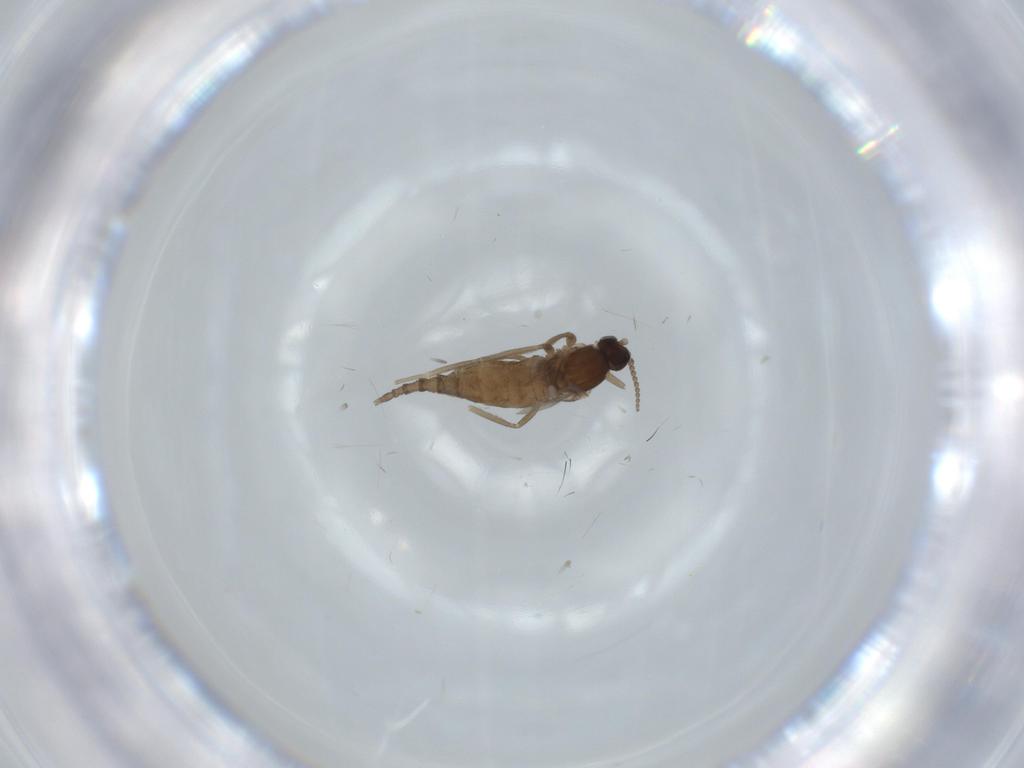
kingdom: Animalia
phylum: Arthropoda
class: Insecta
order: Diptera
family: Cecidomyiidae
